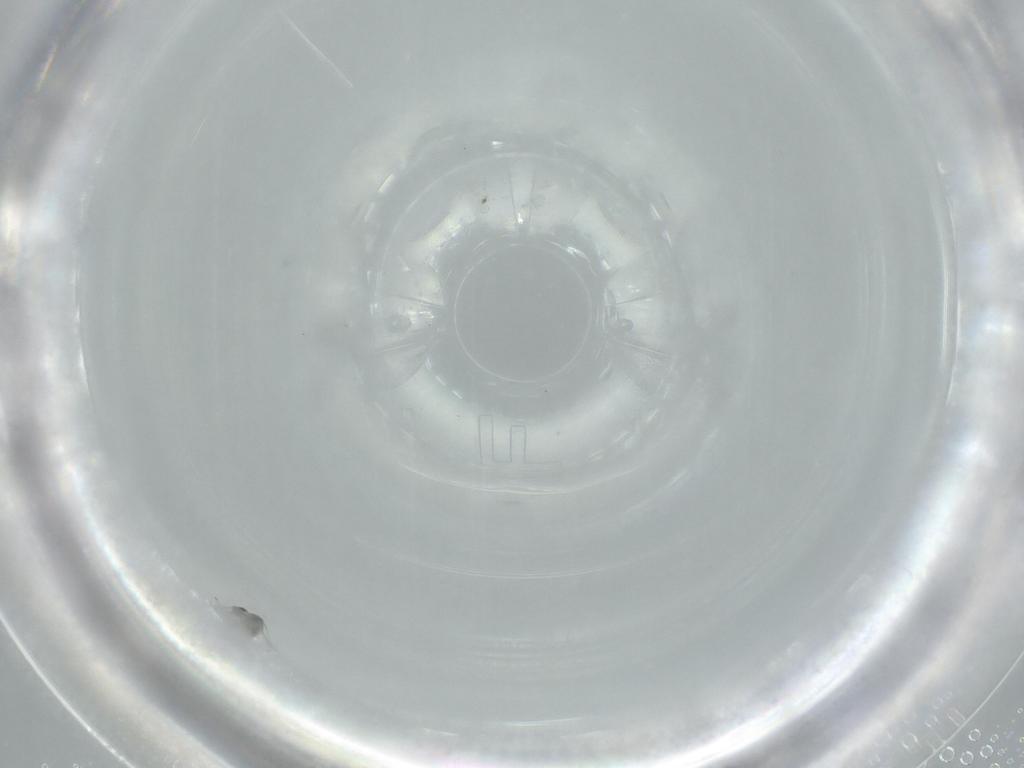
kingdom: Animalia
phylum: Arthropoda
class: Insecta
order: Diptera
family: Cecidomyiidae
